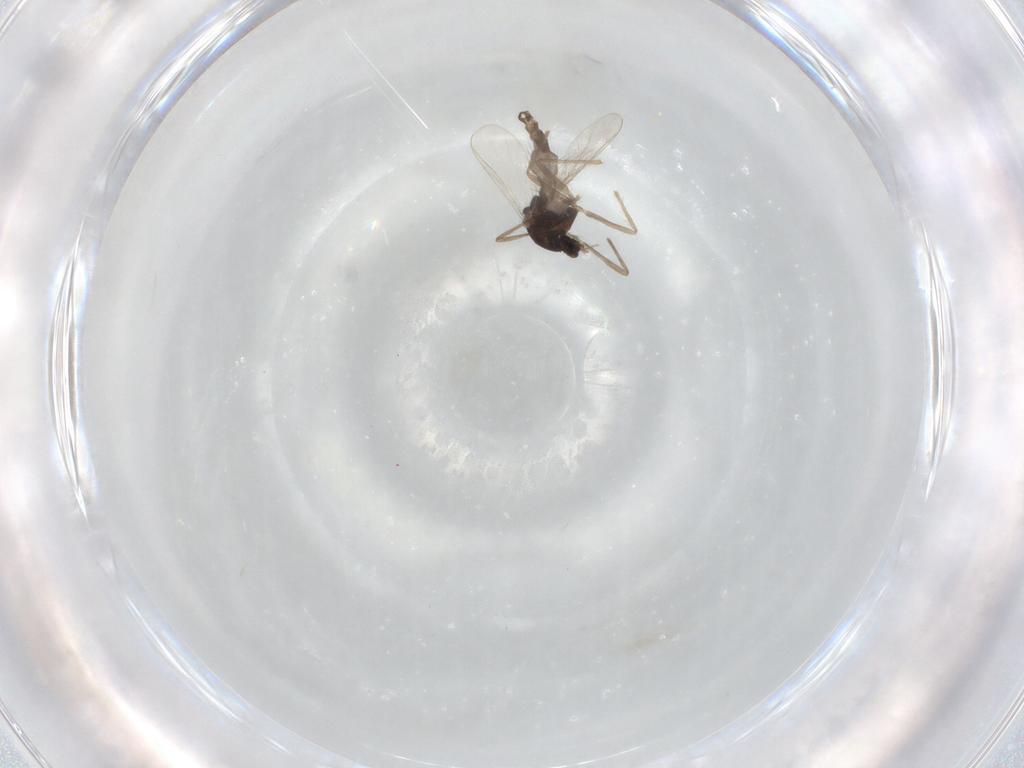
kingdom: Animalia
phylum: Arthropoda
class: Insecta
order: Diptera
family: Chironomidae
